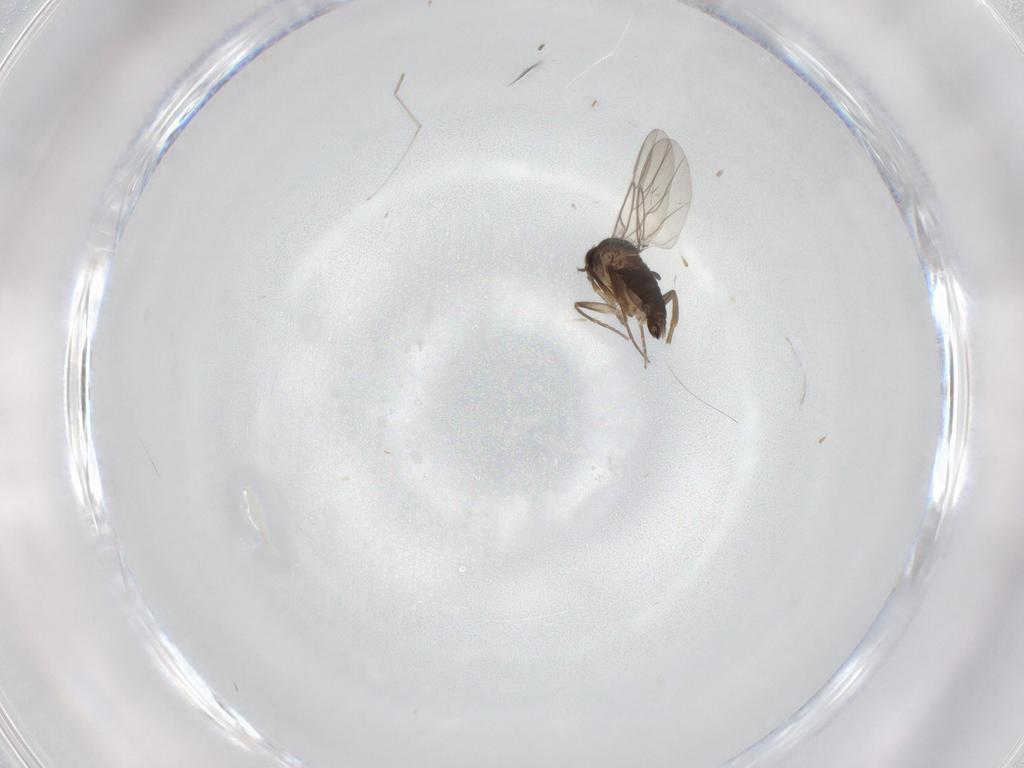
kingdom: Animalia
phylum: Arthropoda
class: Insecta
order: Diptera
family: Phoridae
